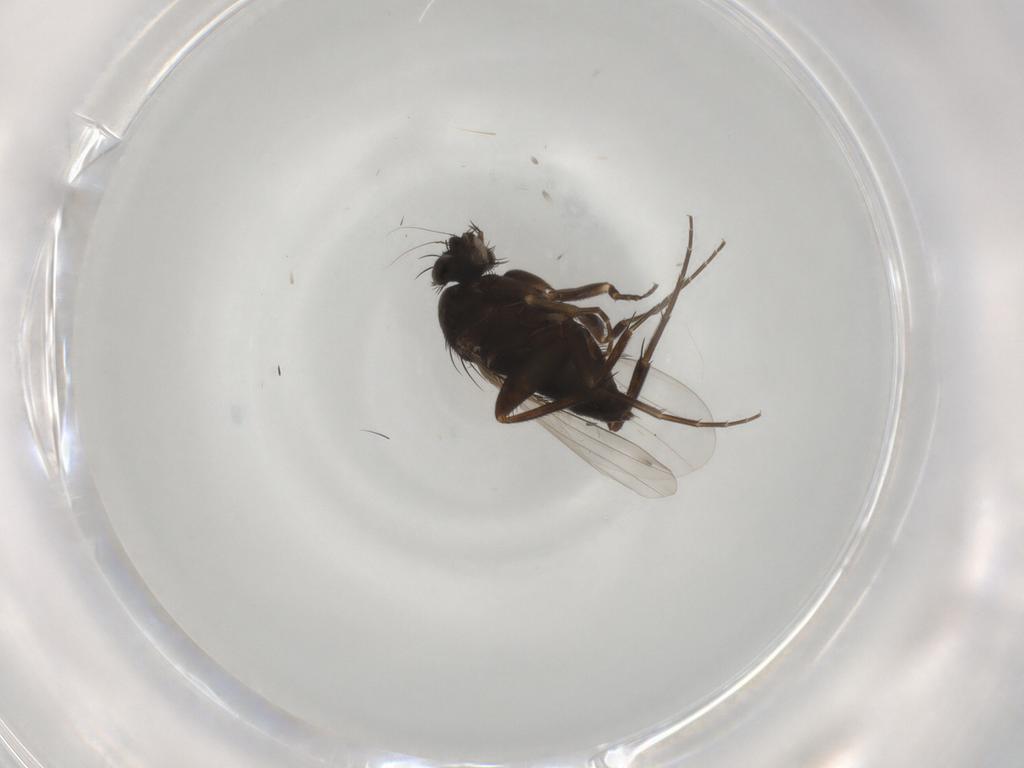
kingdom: Animalia
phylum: Arthropoda
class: Insecta
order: Diptera
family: Phoridae
